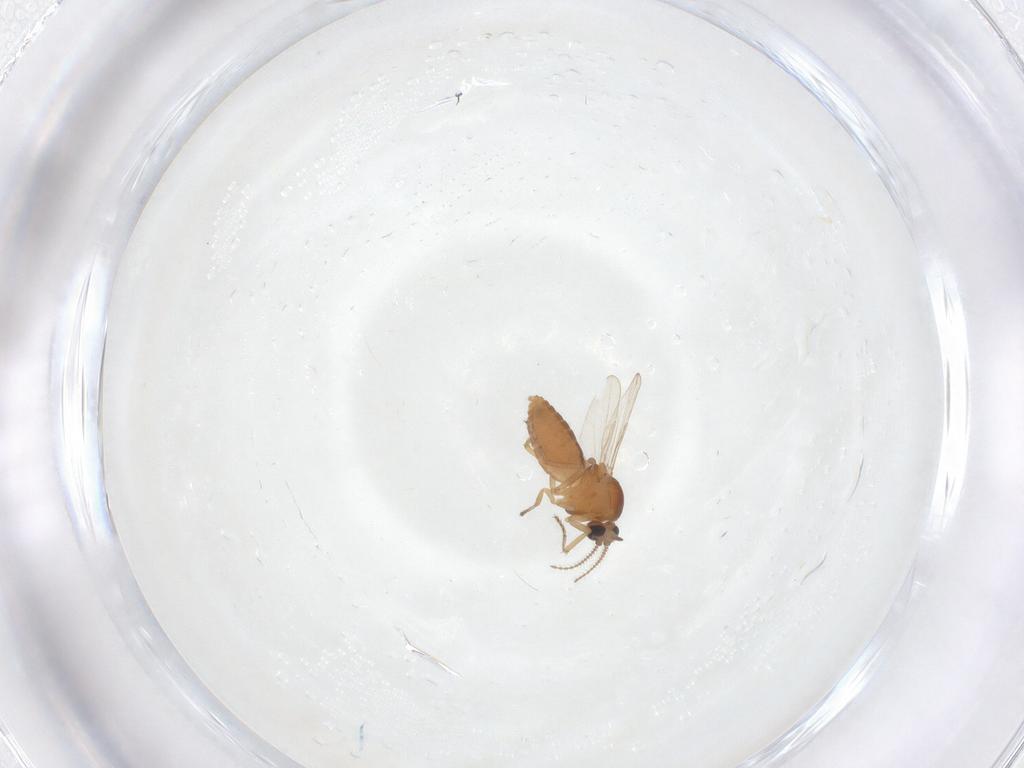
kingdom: Animalia
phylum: Arthropoda
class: Insecta
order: Diptera
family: Ceratopogonidae
